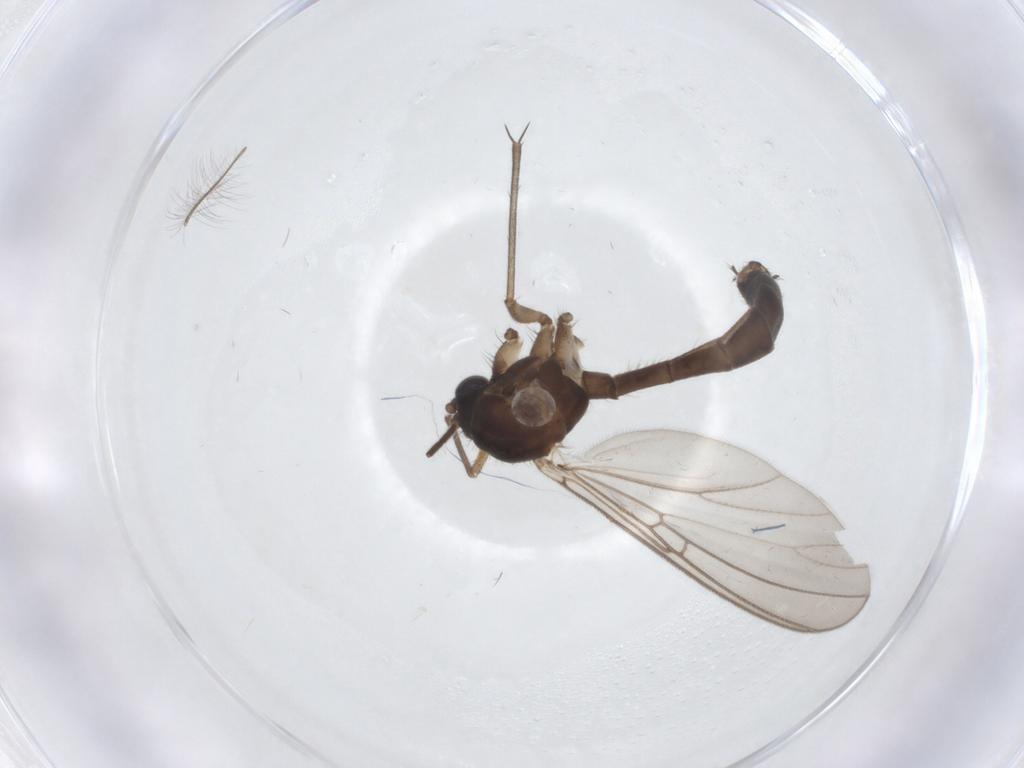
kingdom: Animalia
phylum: Arthropoda
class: Insecta
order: Diptera
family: Mycetophilidae
